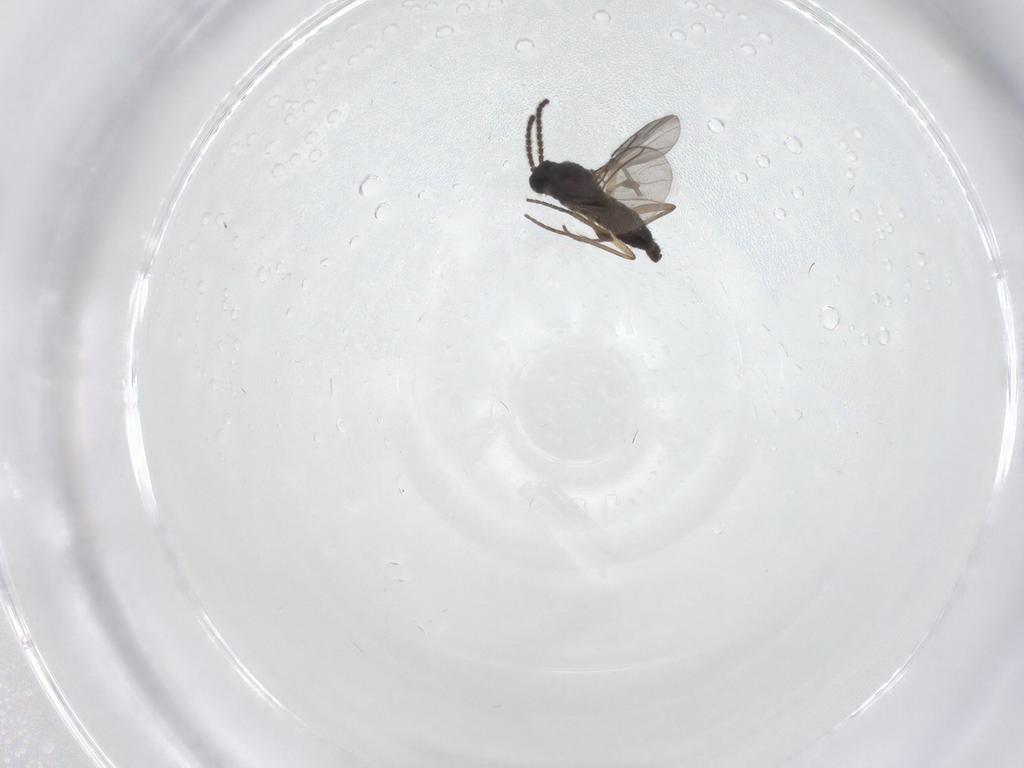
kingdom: Animalia
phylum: Arthropoda
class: Insecta
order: Diptera
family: Sciaridae
